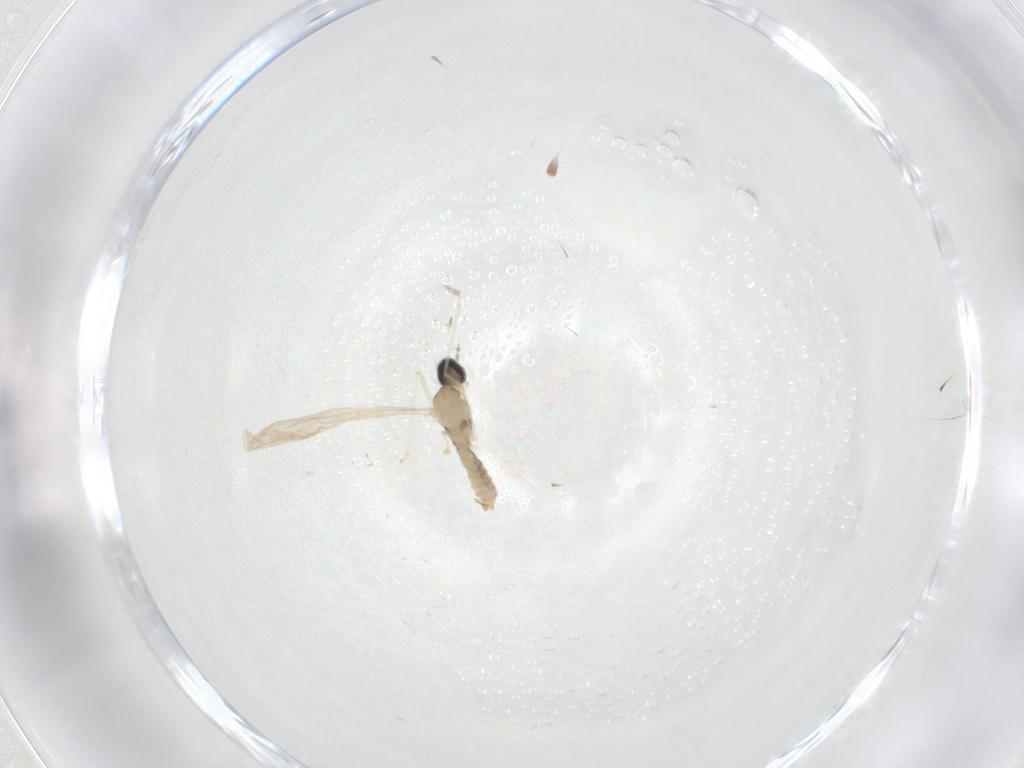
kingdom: Animalia
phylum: Arthropoda
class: Insecta
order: Diptera
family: Cecidomyiidae
